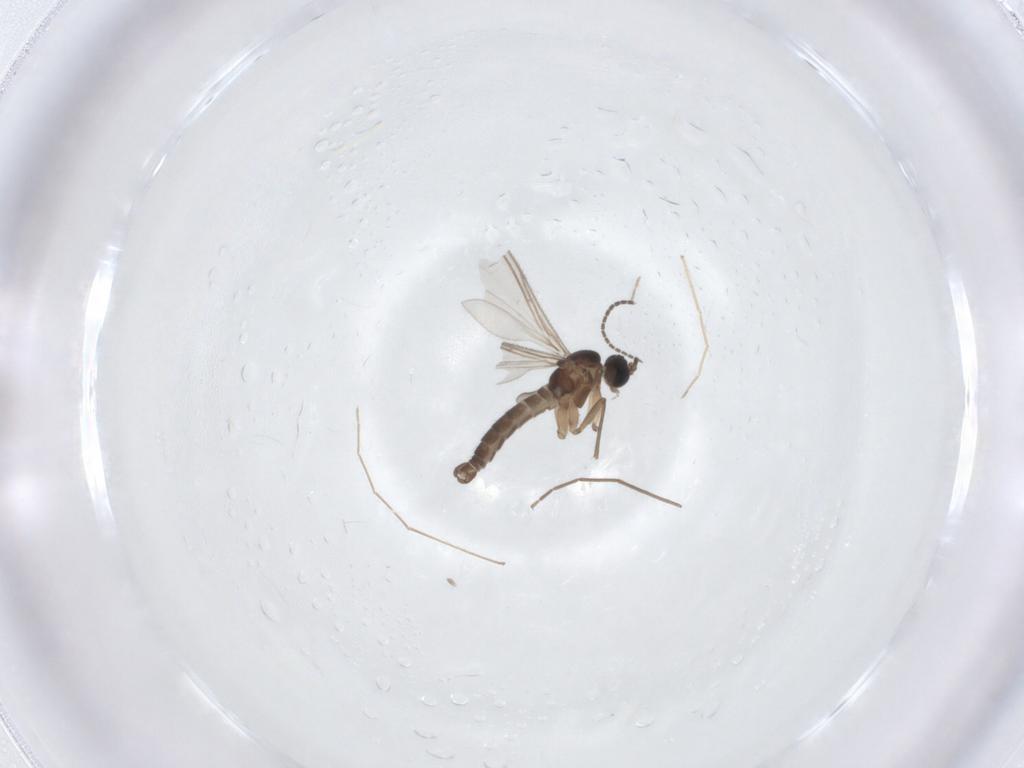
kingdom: Animalia
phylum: Arthropoda
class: Insecta
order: Diptera
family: Sciaridae
